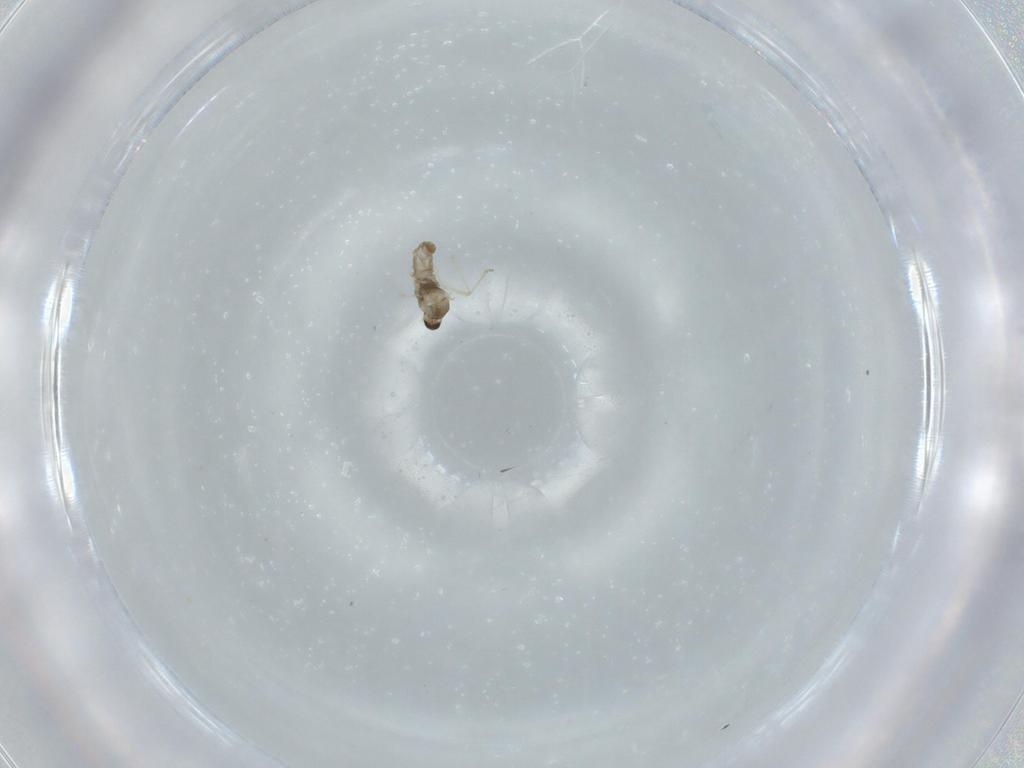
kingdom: Animalia
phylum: Arthropoda
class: Insecta
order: Diptera
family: Cecidomyiidae
